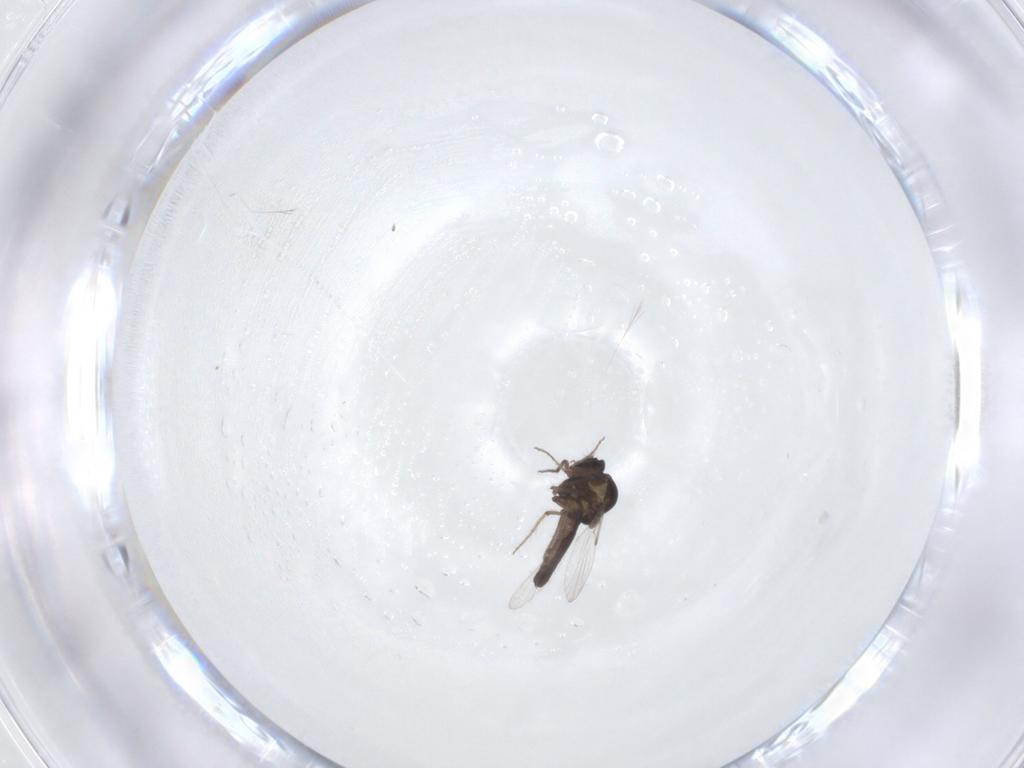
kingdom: Animalia
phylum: Arthropoda
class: Insecta
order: Diptera
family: Ceratopogonidae
